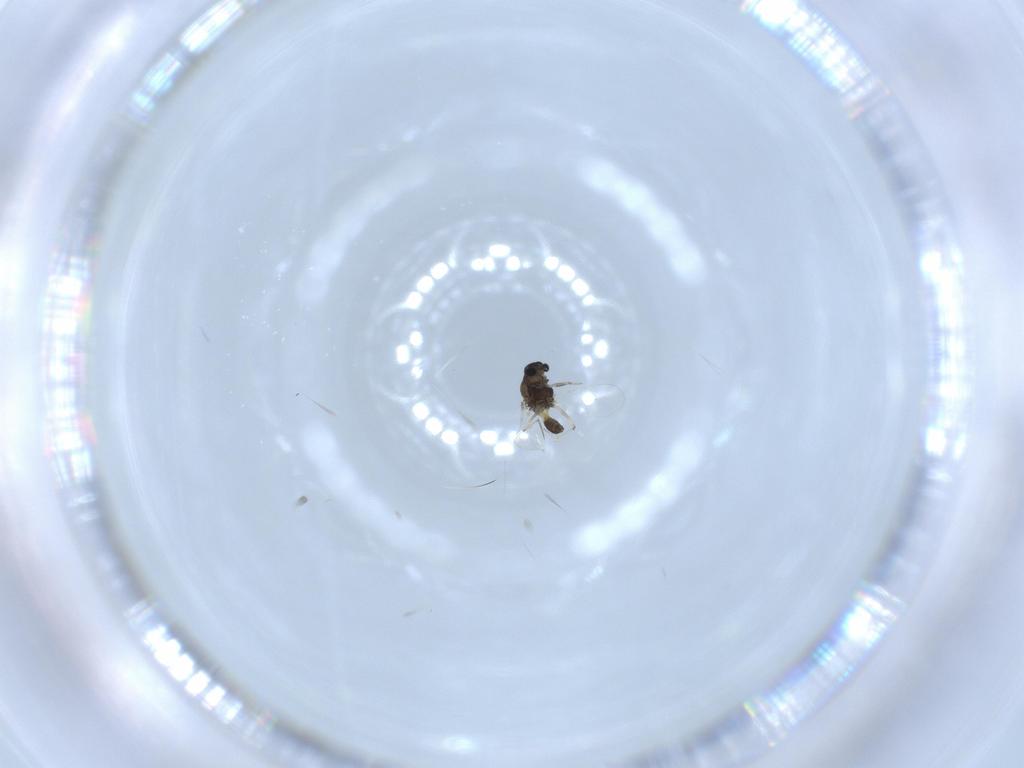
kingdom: Animalia
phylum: Arthropoda
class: Insecta
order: Diptera
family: Chironomidae
